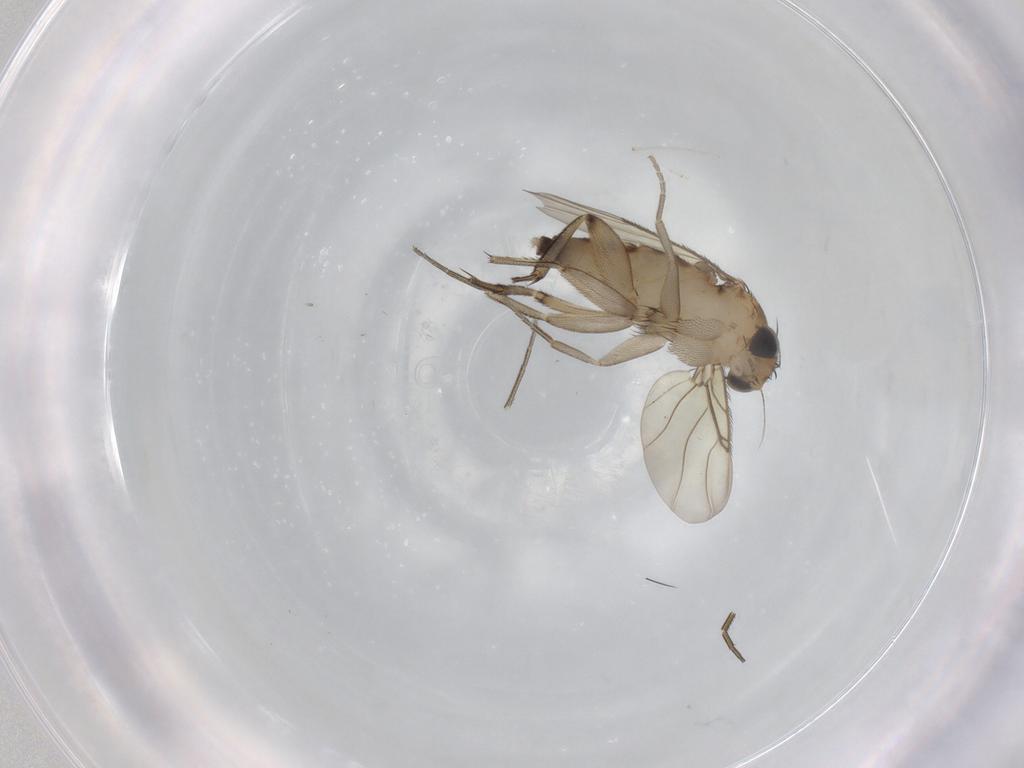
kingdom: Animalia
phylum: Arthropoda
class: Insecta
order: Diptera
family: Phoridae
